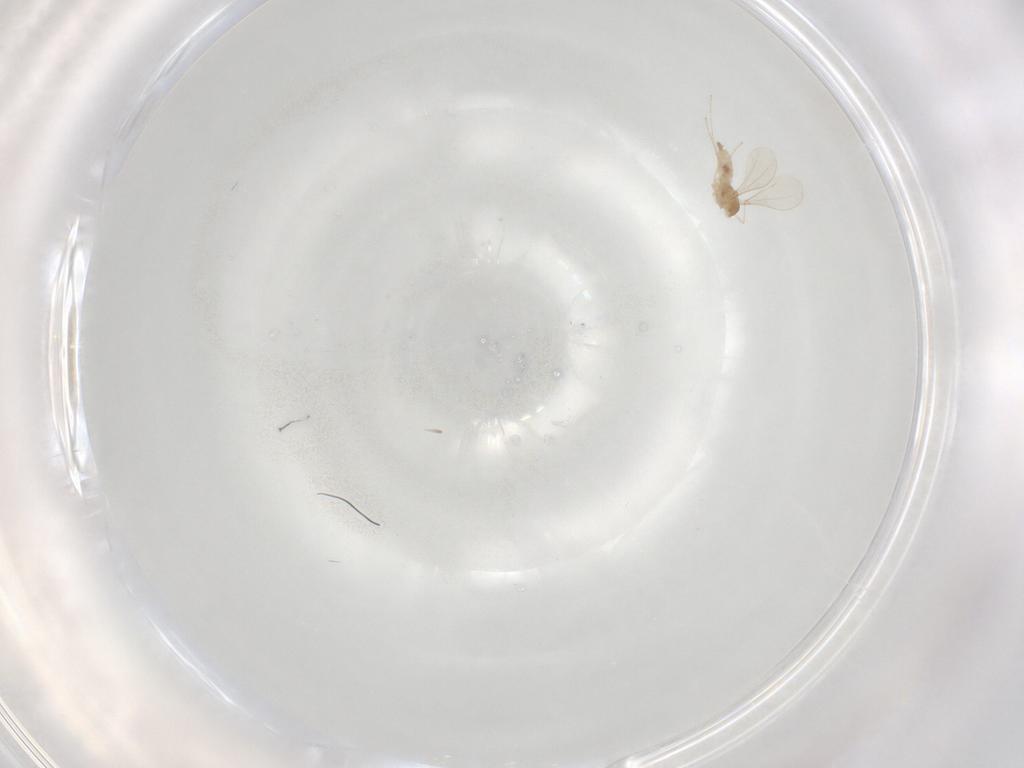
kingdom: Animalia
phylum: Arthropoda
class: Insecta
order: Diptera
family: Cecidomyiidae
